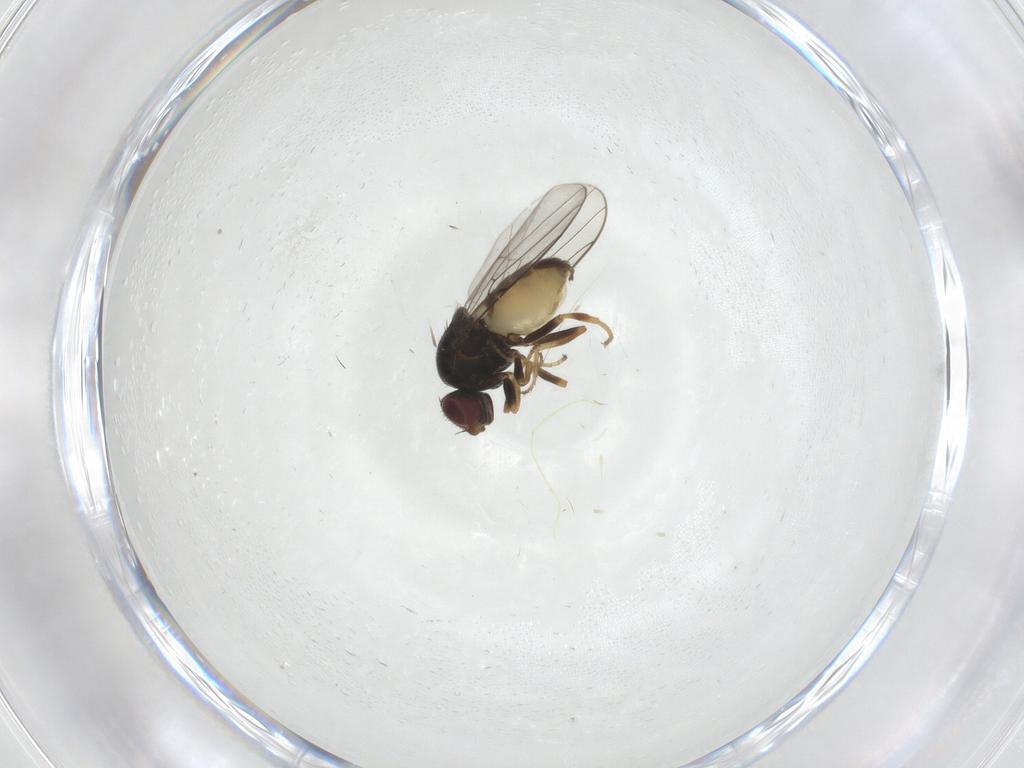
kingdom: Animalia
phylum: Arthropoda
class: Insecta
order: Diptera
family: Chloropidae
